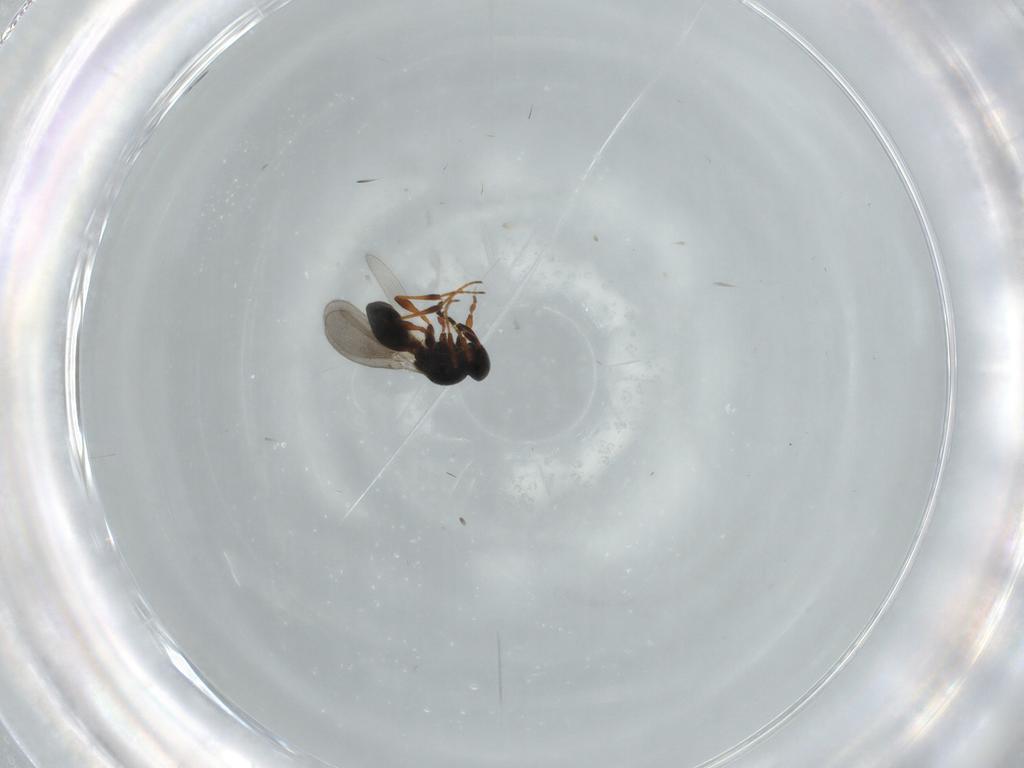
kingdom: Animalia
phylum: Arthropoda
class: Insecta
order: Hymenoptera
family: Platygastridae
